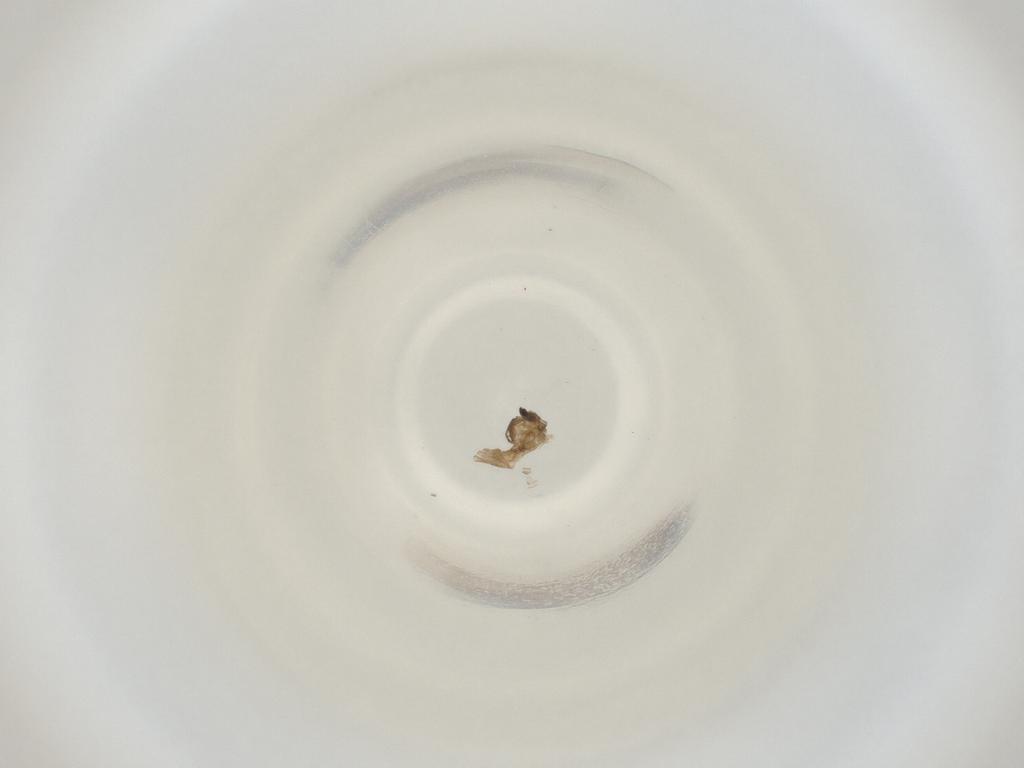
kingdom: Animalia
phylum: Arthropoda
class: Insecta
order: Diptera
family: Cecidomyiidae
